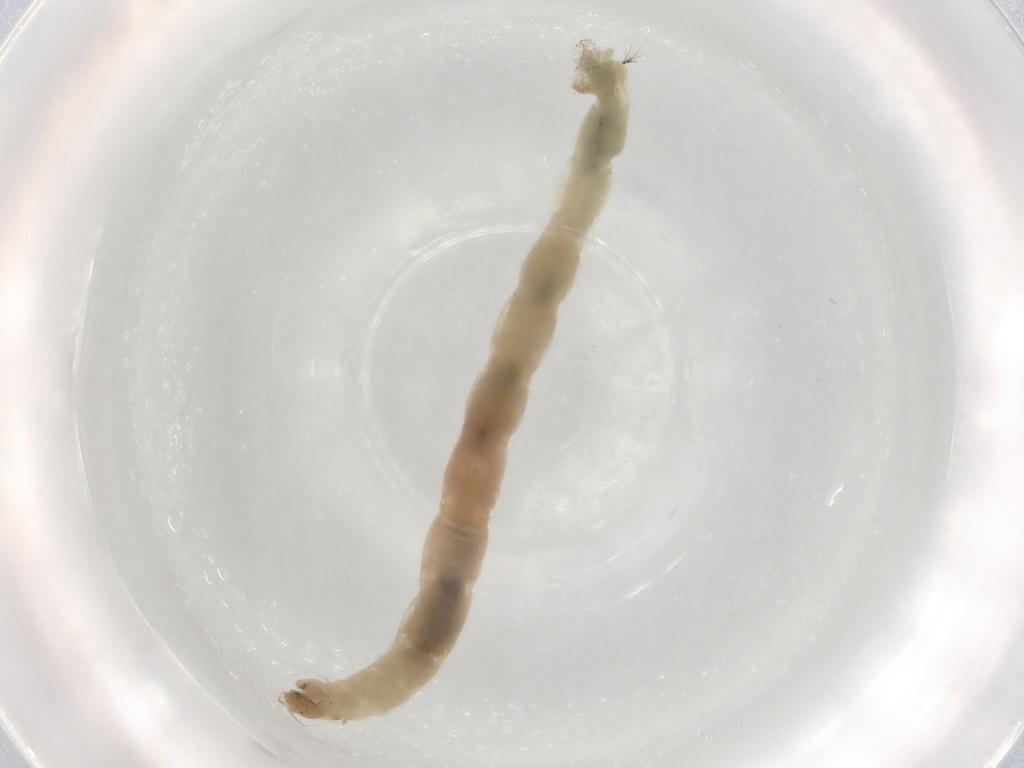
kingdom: Animalia
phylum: Arthropoda
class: Insecta
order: Diptera
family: Chironomidae
